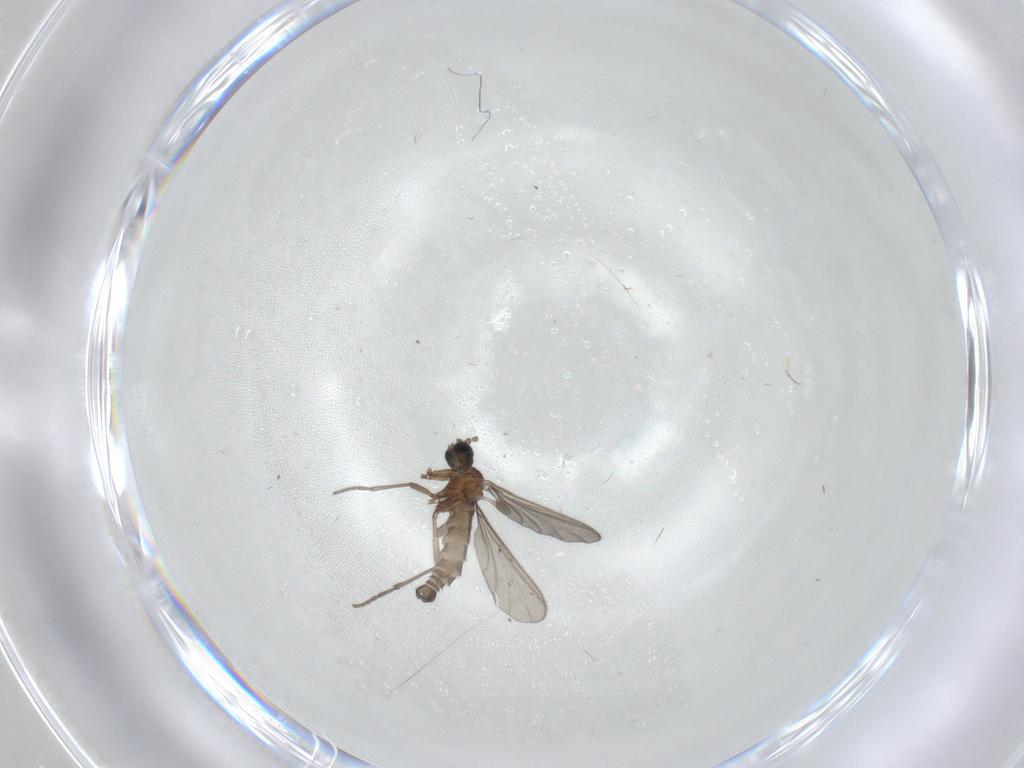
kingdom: Animalia
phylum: Arthropoda
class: Insecta
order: Diptera
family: Sciaridae
